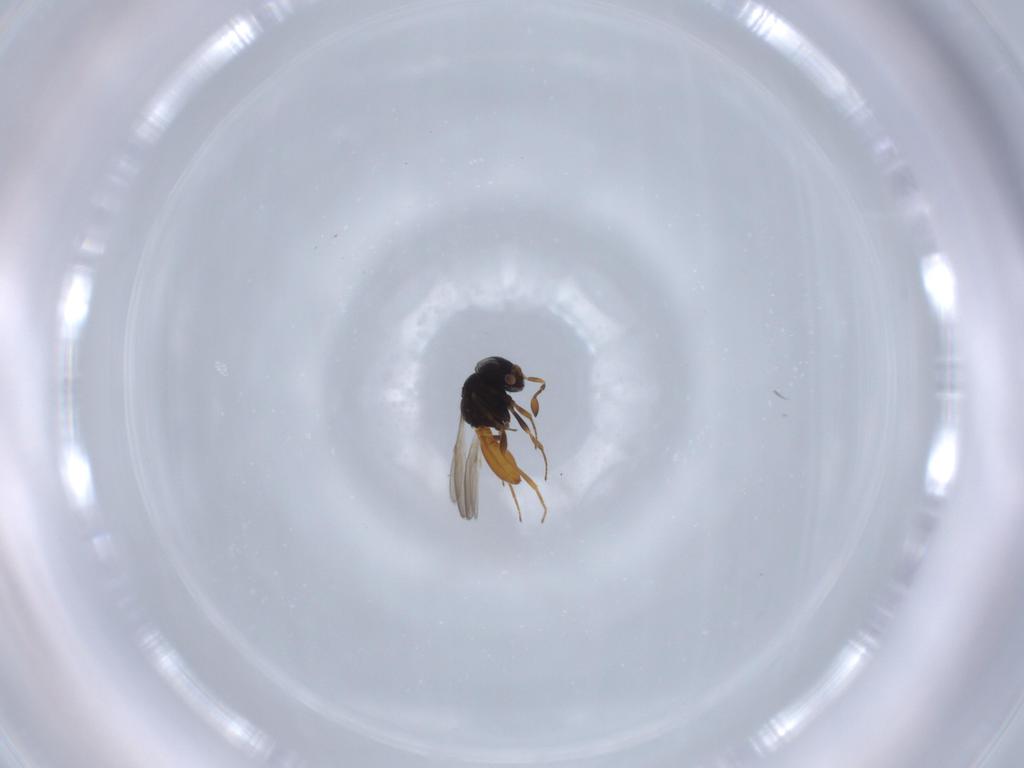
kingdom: Animalia
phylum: Arthropoda
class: Insecta
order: Hymenoptera
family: Scelionidae
